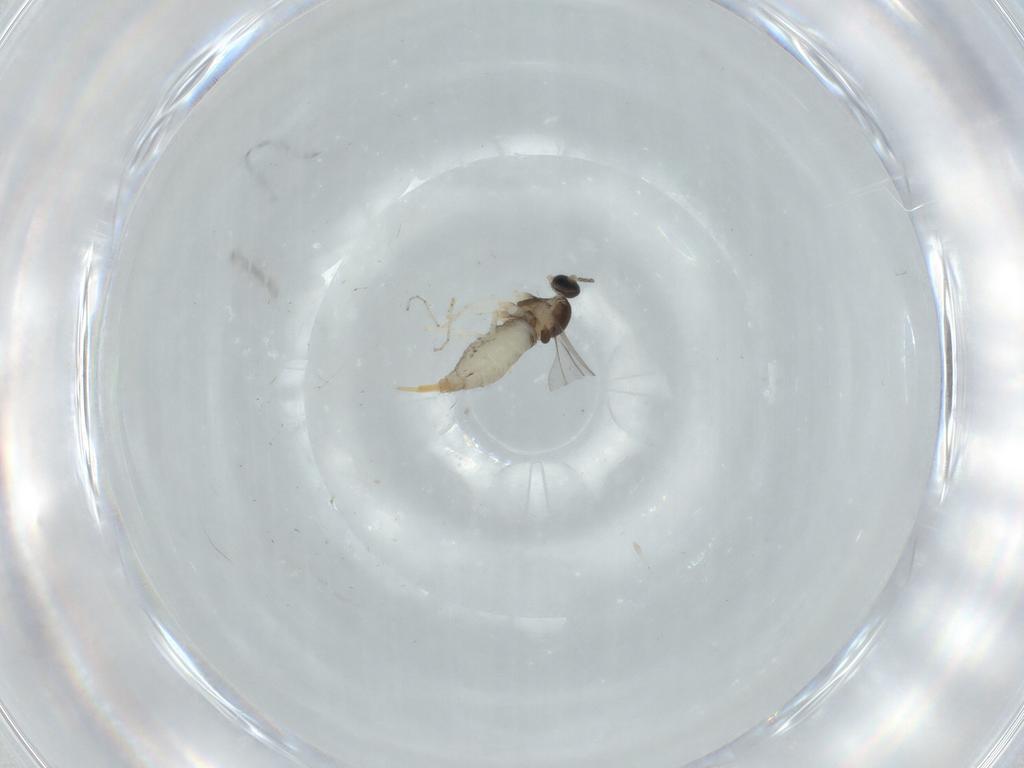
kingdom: Animalia
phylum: Arthropoda
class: Insecta
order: Diptera
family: Cecidomyiidae
